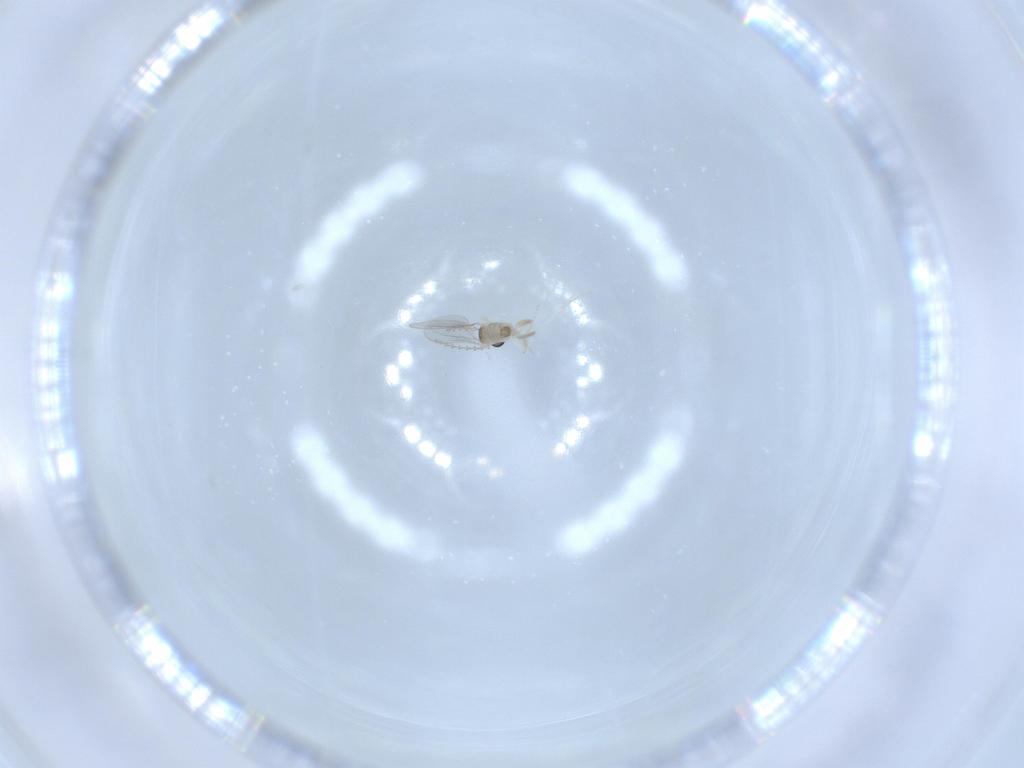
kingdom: Animalia
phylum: Arthropoda
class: Insecta
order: Diptera
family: Cecidomyiidae
